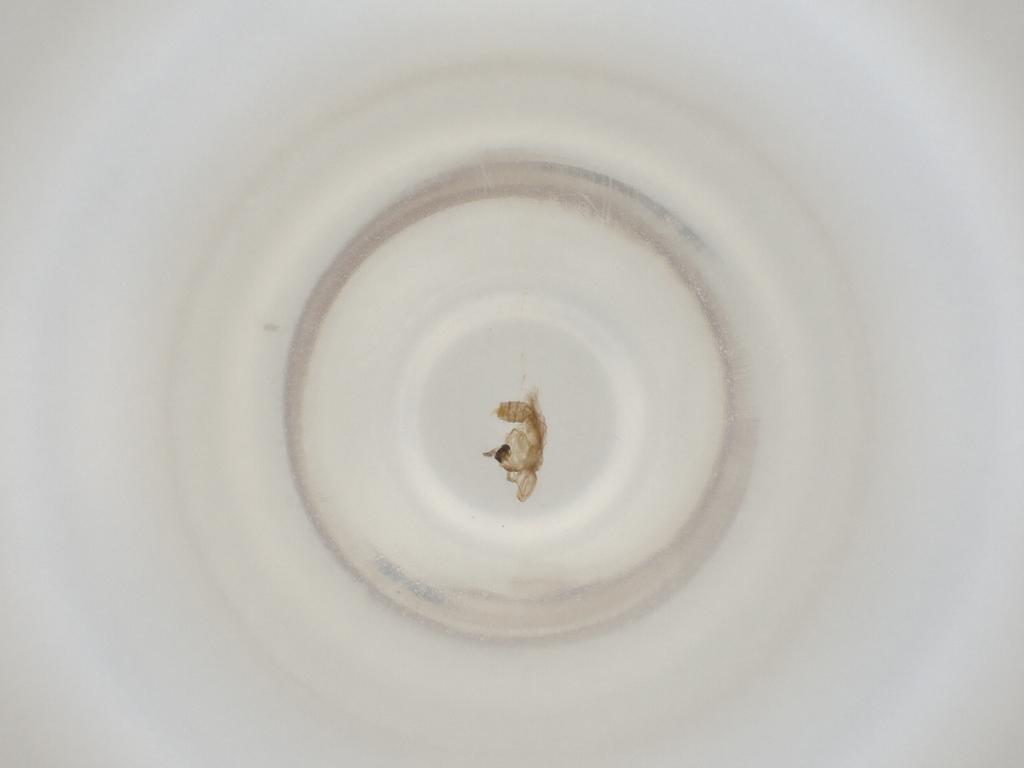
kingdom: Animalia
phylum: Arthropoda
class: Insecta
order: Diptera
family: Cecidomyiidae
